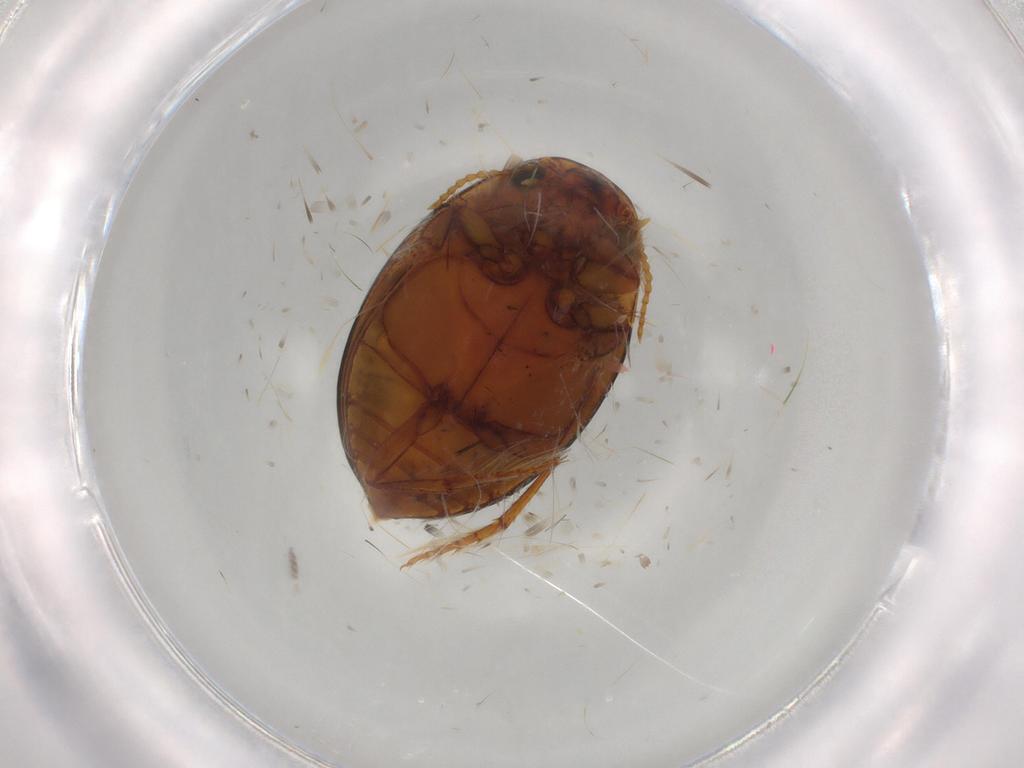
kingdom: Animalia
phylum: Arthropoda
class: Insecta
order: Coleoptera
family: Dytiscidae
